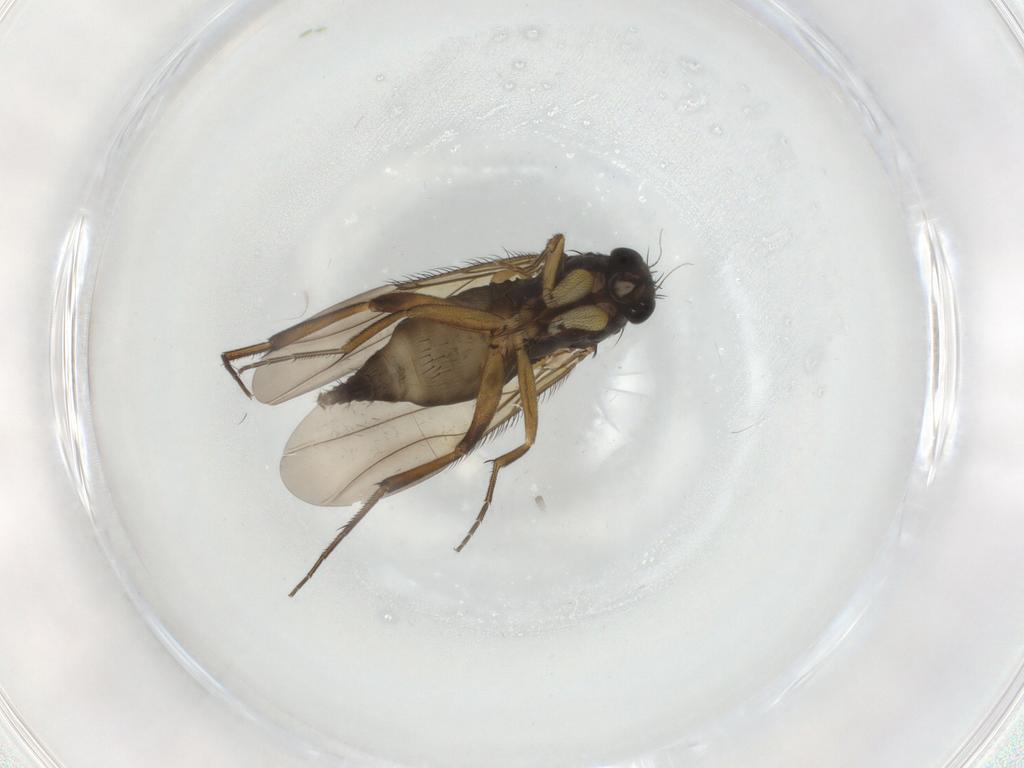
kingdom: Animalia
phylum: Arthropoda
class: Insecta
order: Diptera
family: Phoridae
